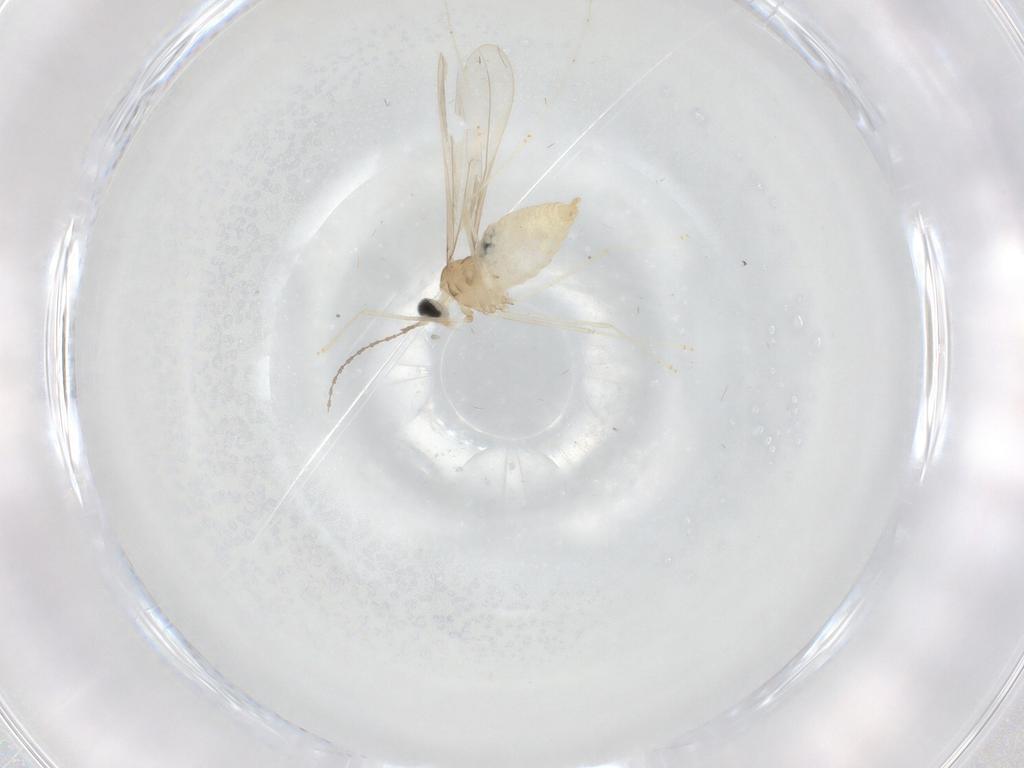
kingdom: Animalia
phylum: Arthropoda
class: Insecta
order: Diptera
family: Cecidomyiidae
